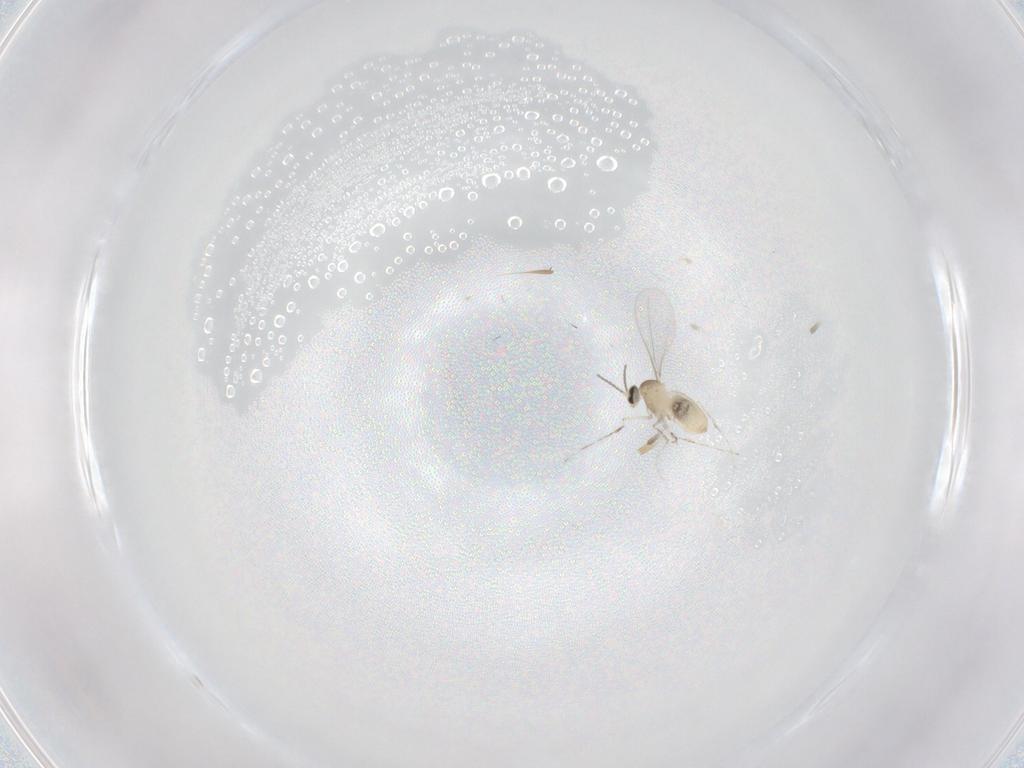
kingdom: Animalia
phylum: Arthropoda
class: Insecta
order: Diptera
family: Cecidomyiidae
